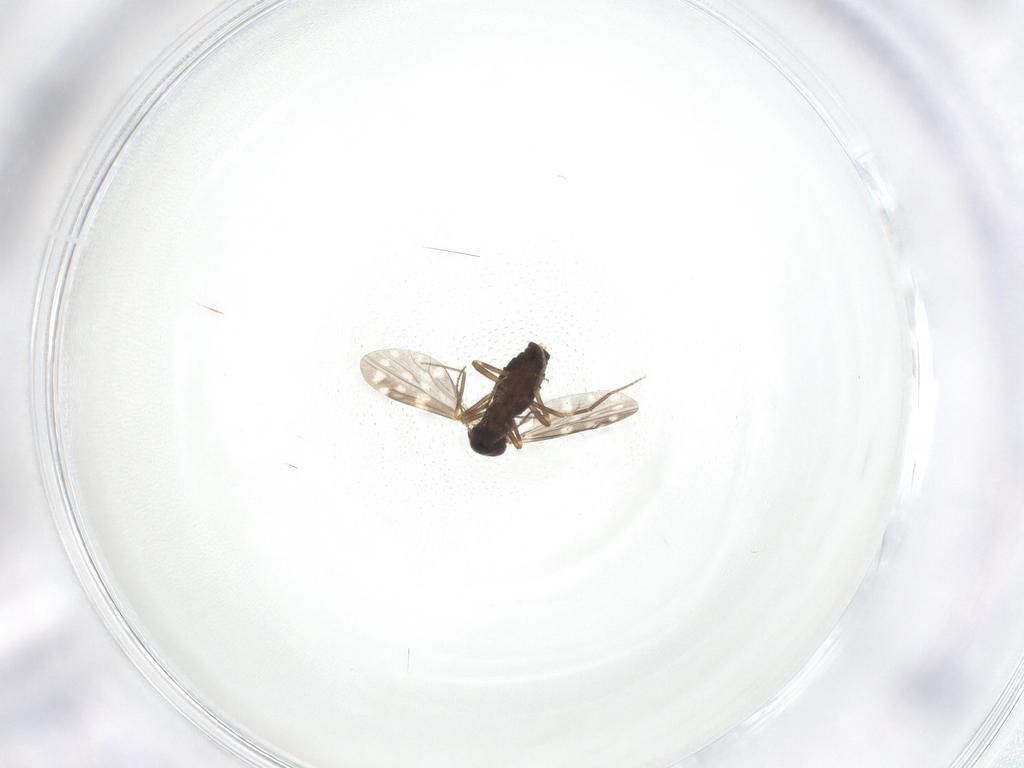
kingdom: Animalia
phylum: Arthropoda
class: Insecta
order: Diptera
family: Ceratopogonidae
